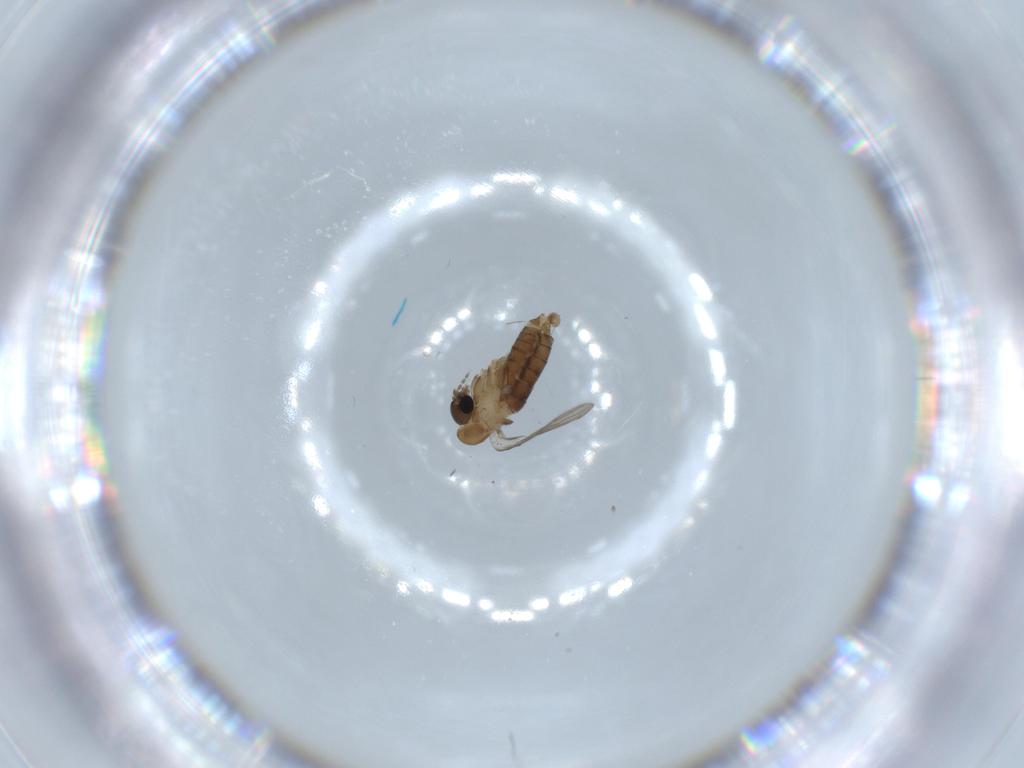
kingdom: Animalia
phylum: Arthropoda
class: Insecta
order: Diptera
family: Psychodidae
